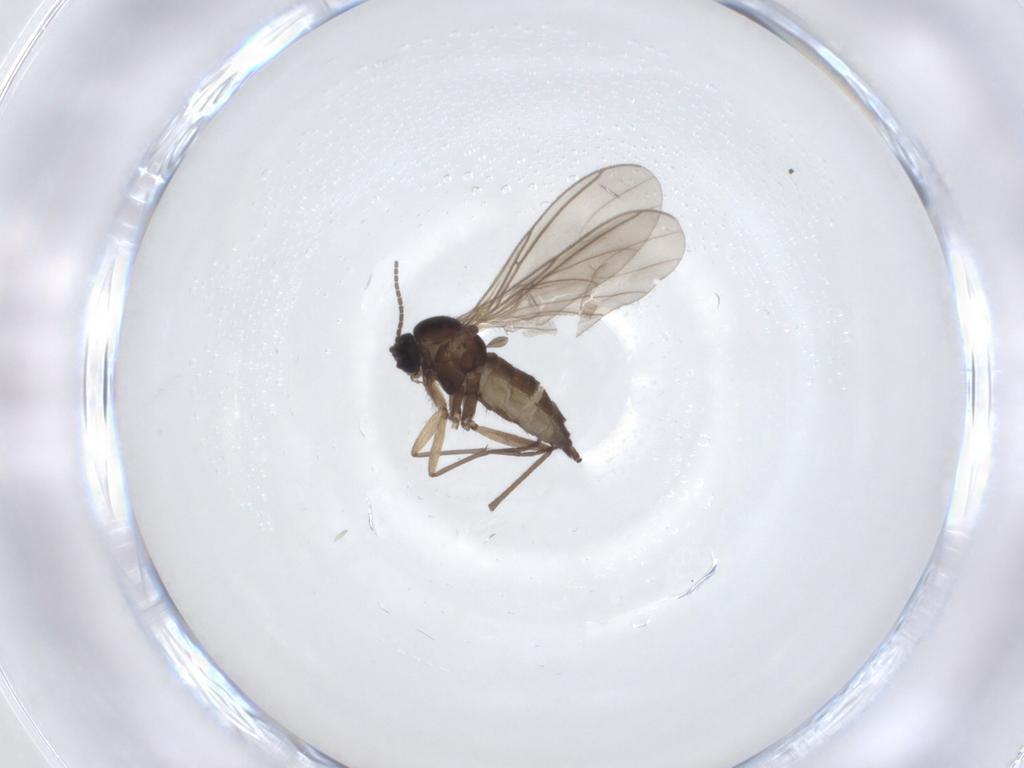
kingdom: Animalia
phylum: Arthropoda
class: Insecta
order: Diptera
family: Sciaridae
